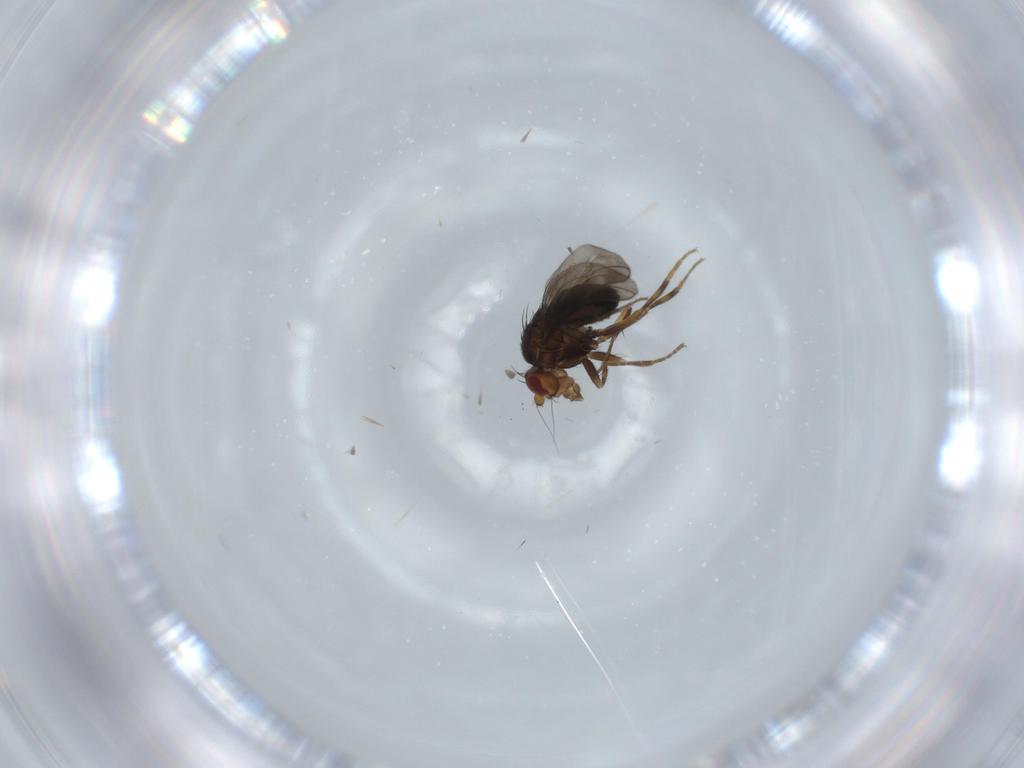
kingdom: Animalia
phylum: Arthropoda
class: Insecta
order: Diptera
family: Sphaeroceridae
